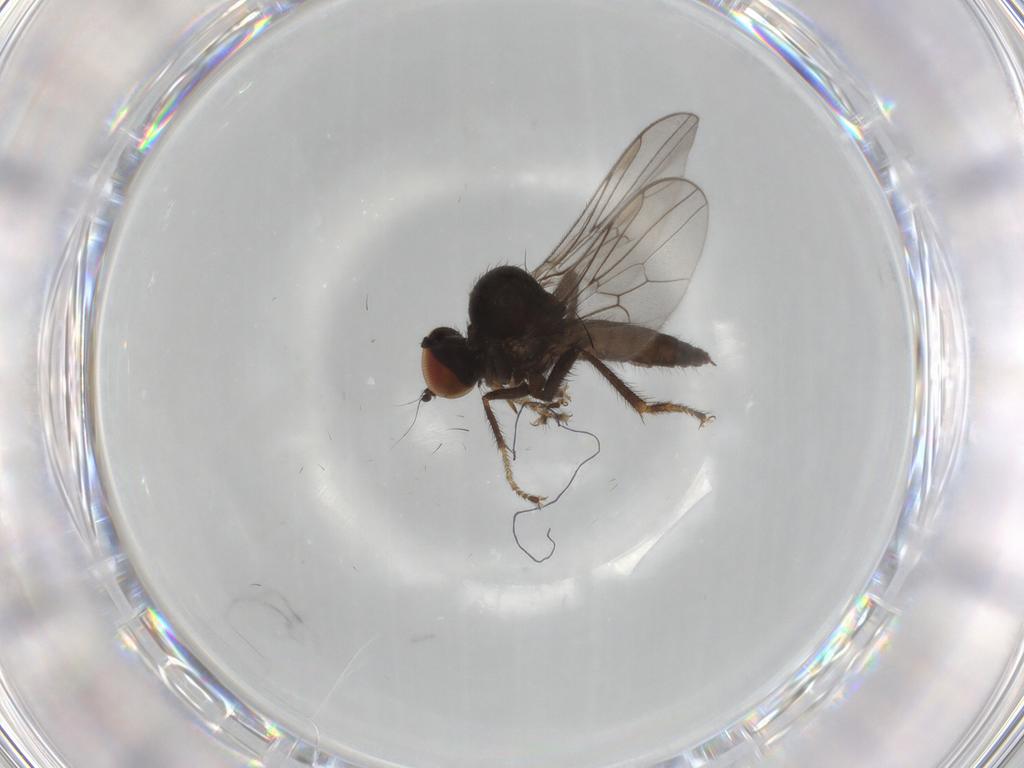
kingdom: Animalia
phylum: Arthropoda
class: Insecta
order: Diptera
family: Hybotidae
